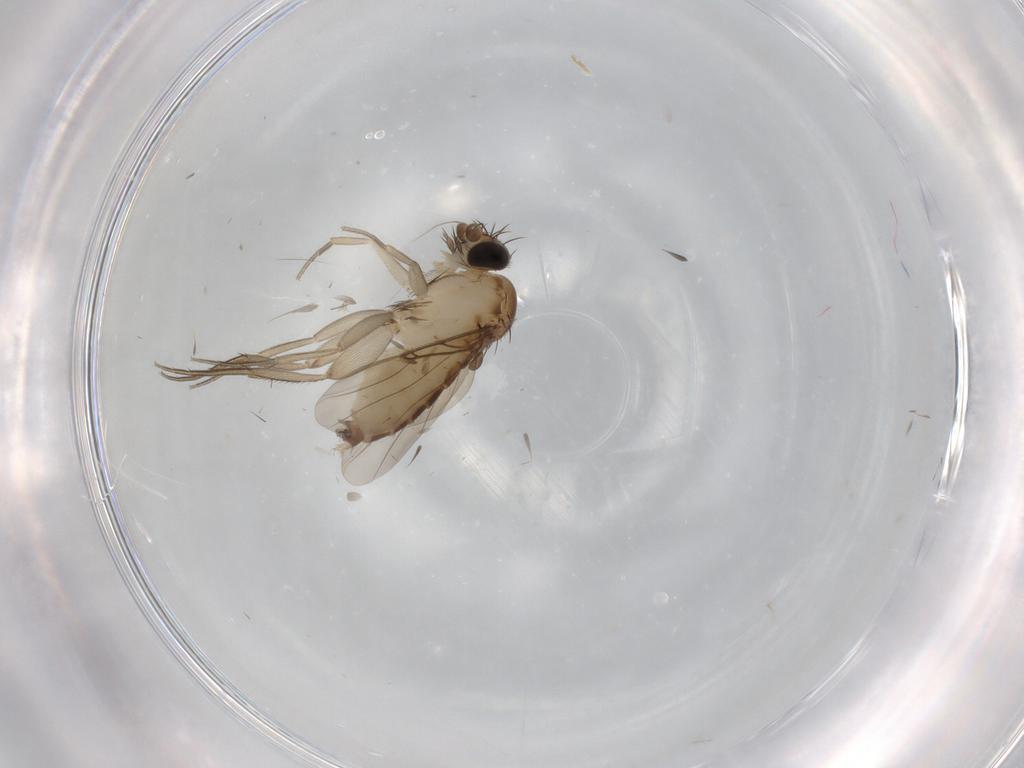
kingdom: Animalia
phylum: Arthropoda
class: Insecta
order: Diptera
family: Phoridae
